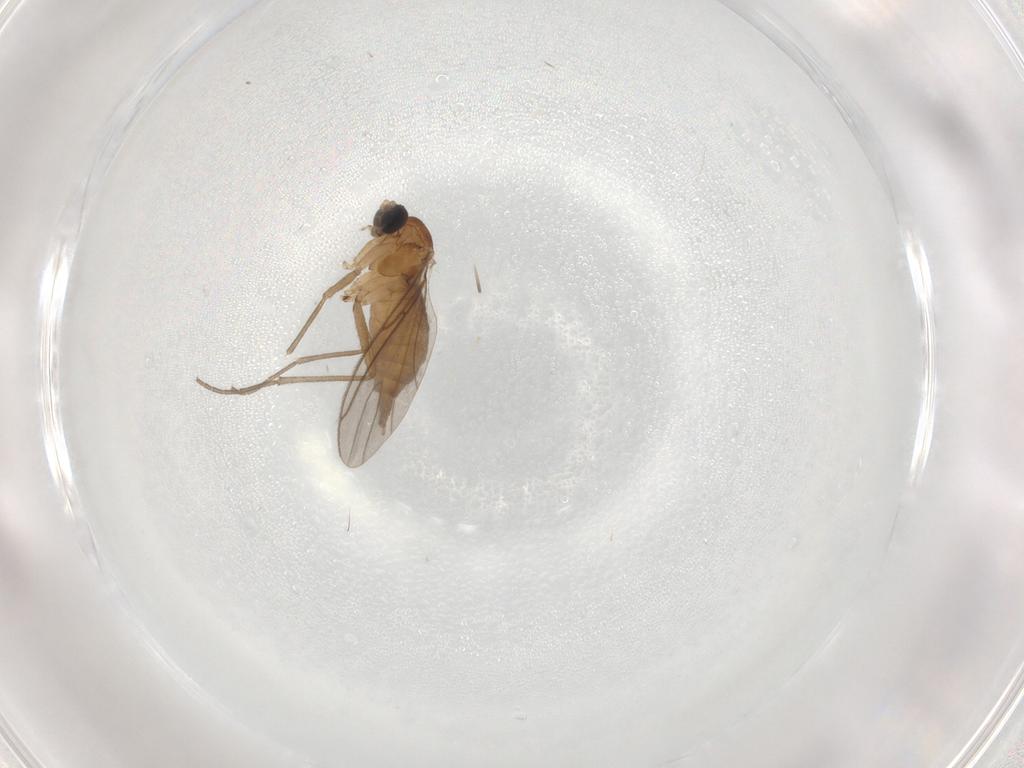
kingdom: Animalia
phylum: Arthropoda
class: Insecta
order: Diptera
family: Sciaridae
